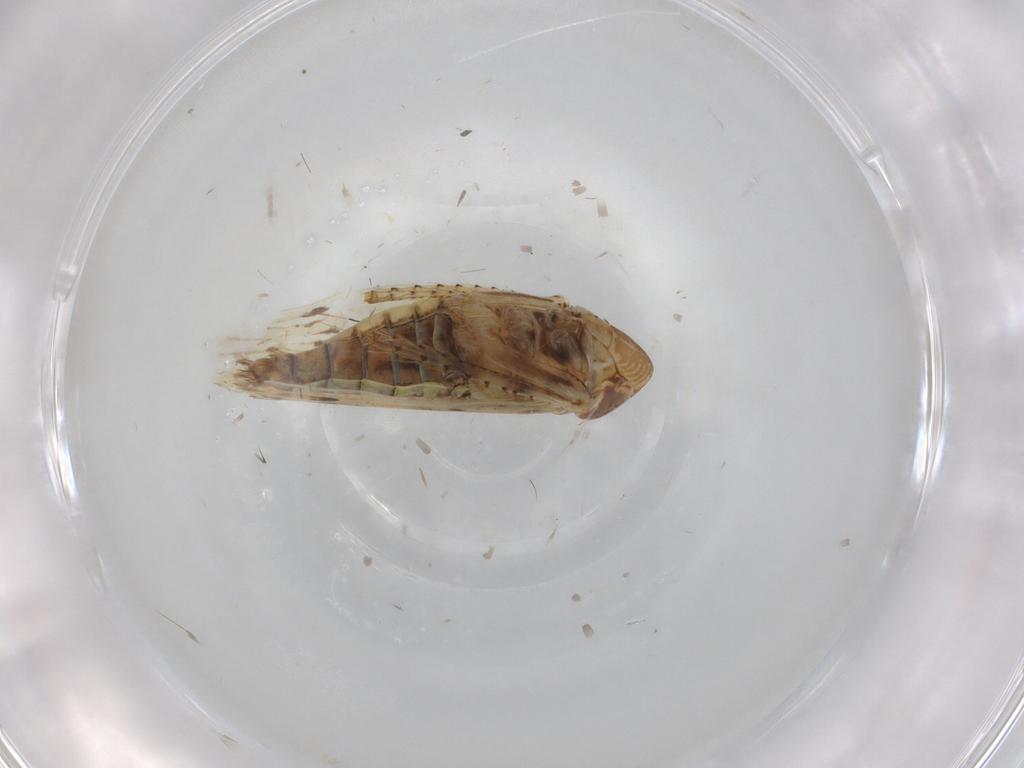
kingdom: Animalia
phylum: Arthropoda
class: Insecta
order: Hemiptera
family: Cicadellidae
